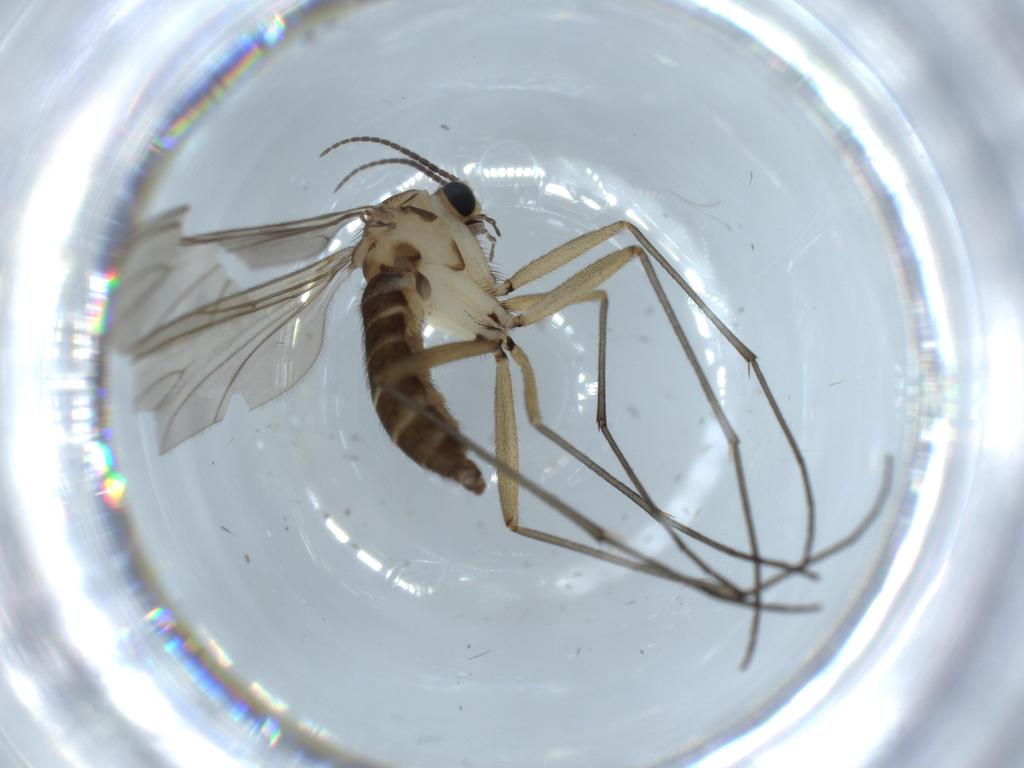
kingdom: Animalia
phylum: Arthropoda
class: Insecta
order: Diptera
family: Sciaridae
